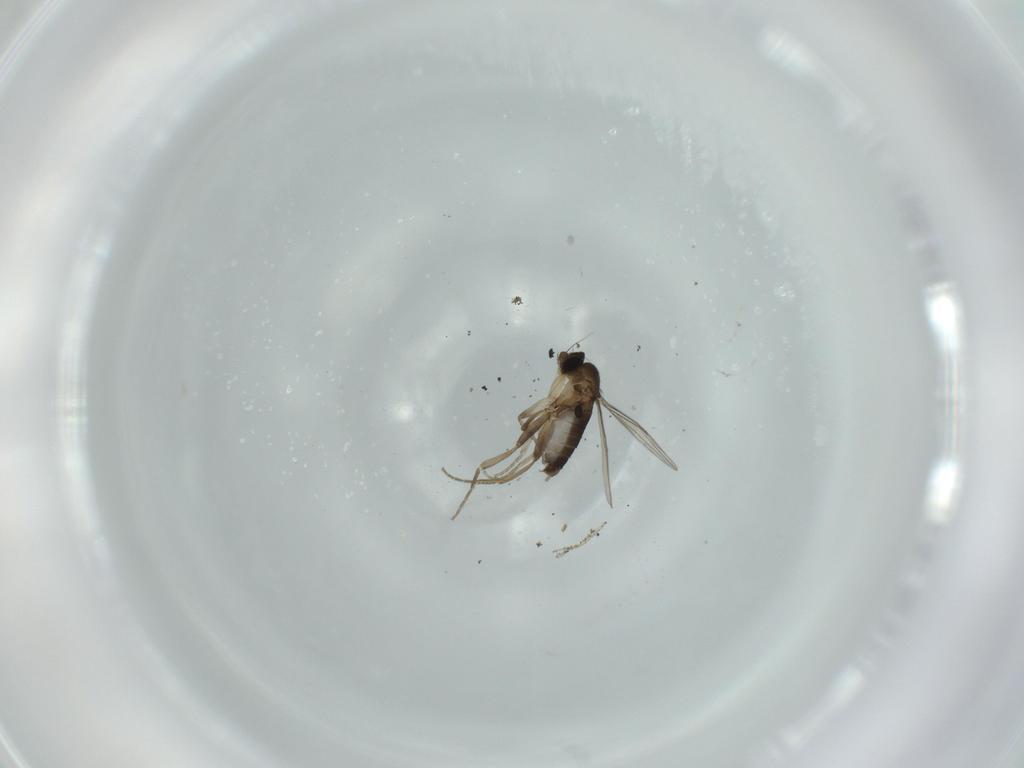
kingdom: Animalia
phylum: Arthropoda
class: Insecta
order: Diptera
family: Phoridae
